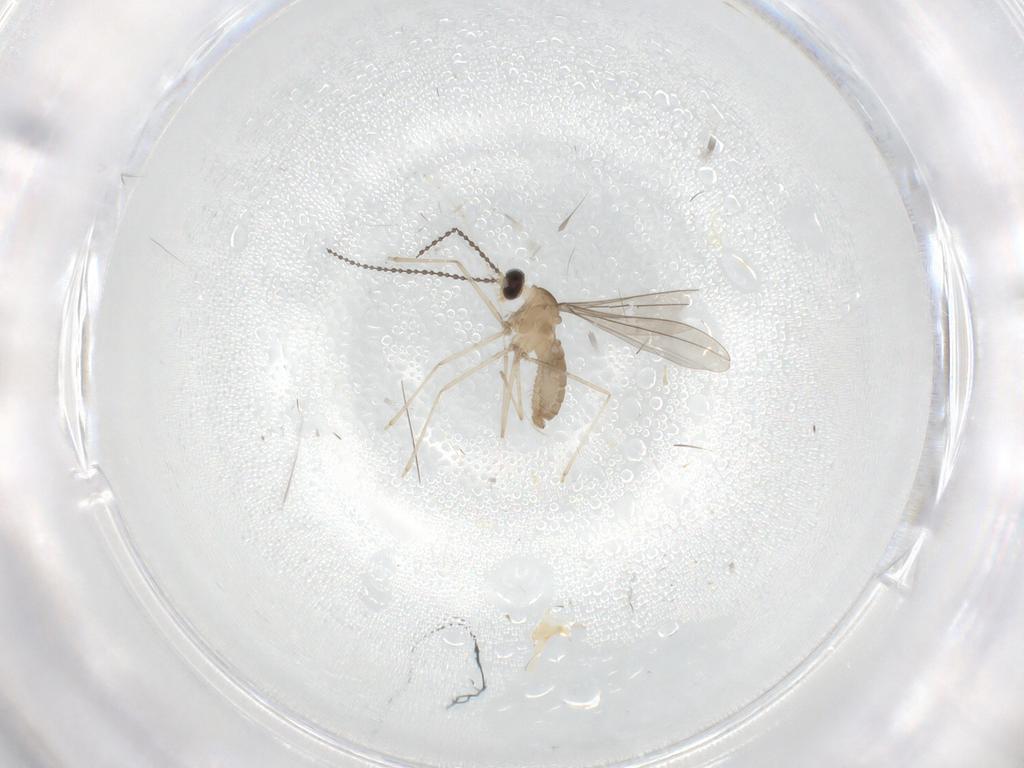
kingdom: Animalia
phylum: Arthropoda
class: Insecta
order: Diptera
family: Cecidomyiidae
